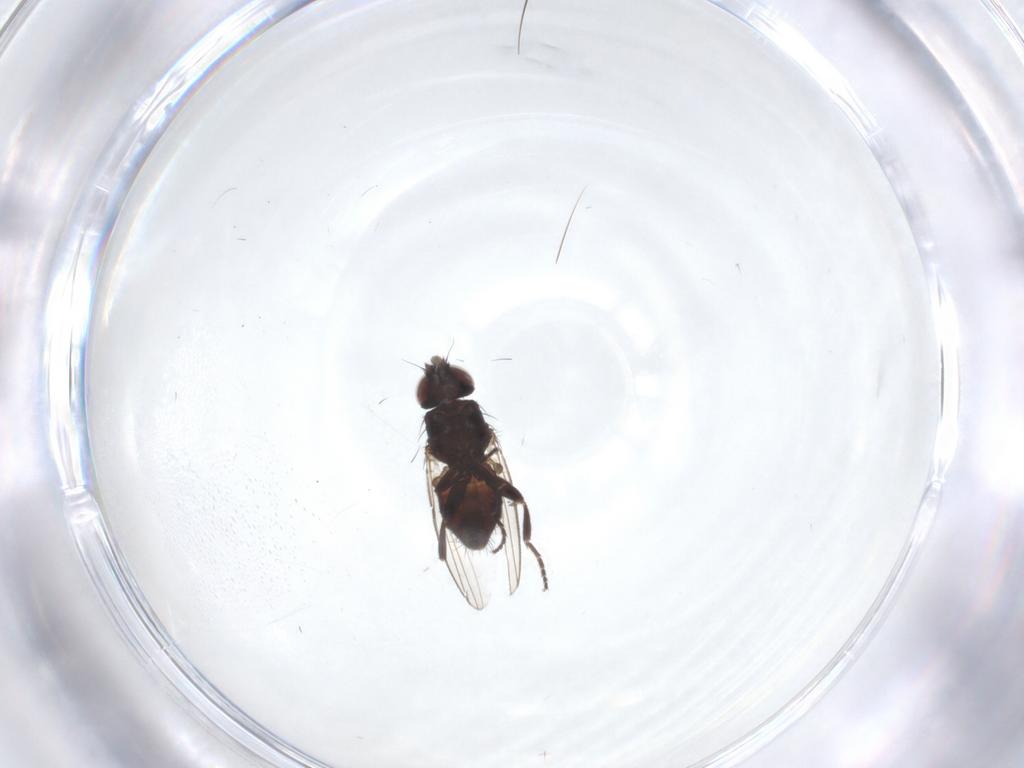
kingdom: Animalia
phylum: Arthropoda
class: Insecta
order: Diptera
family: Milichiidae
